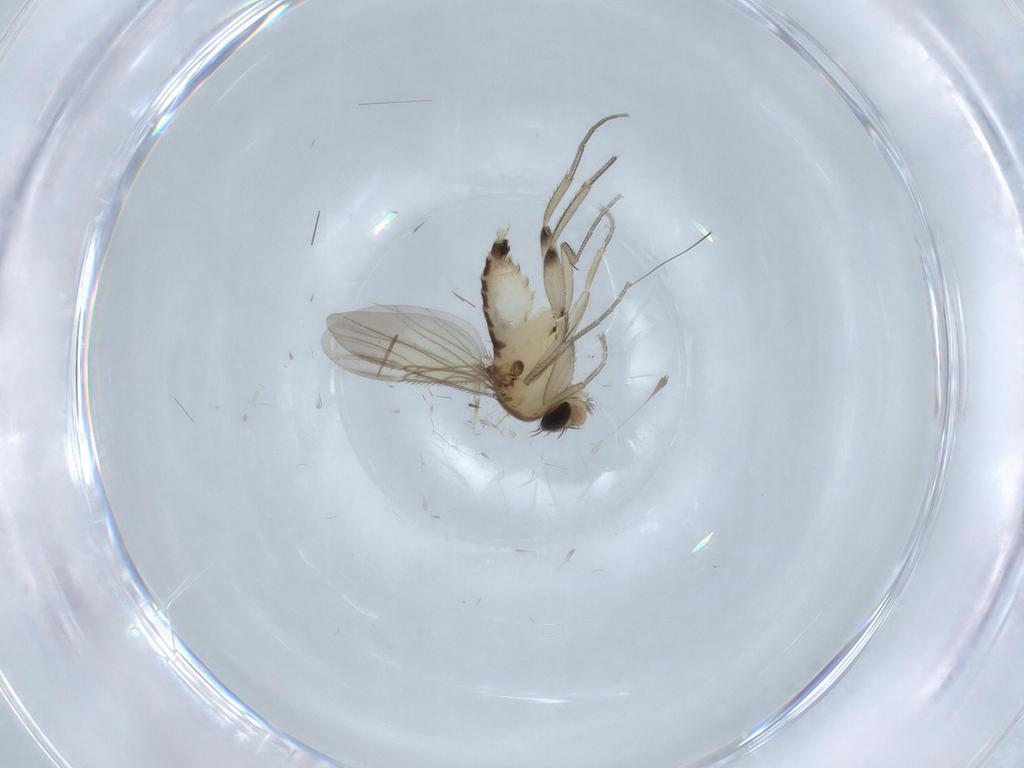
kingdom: Animalia
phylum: Arthropoda
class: Insecta
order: Diptera
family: Phoridae
